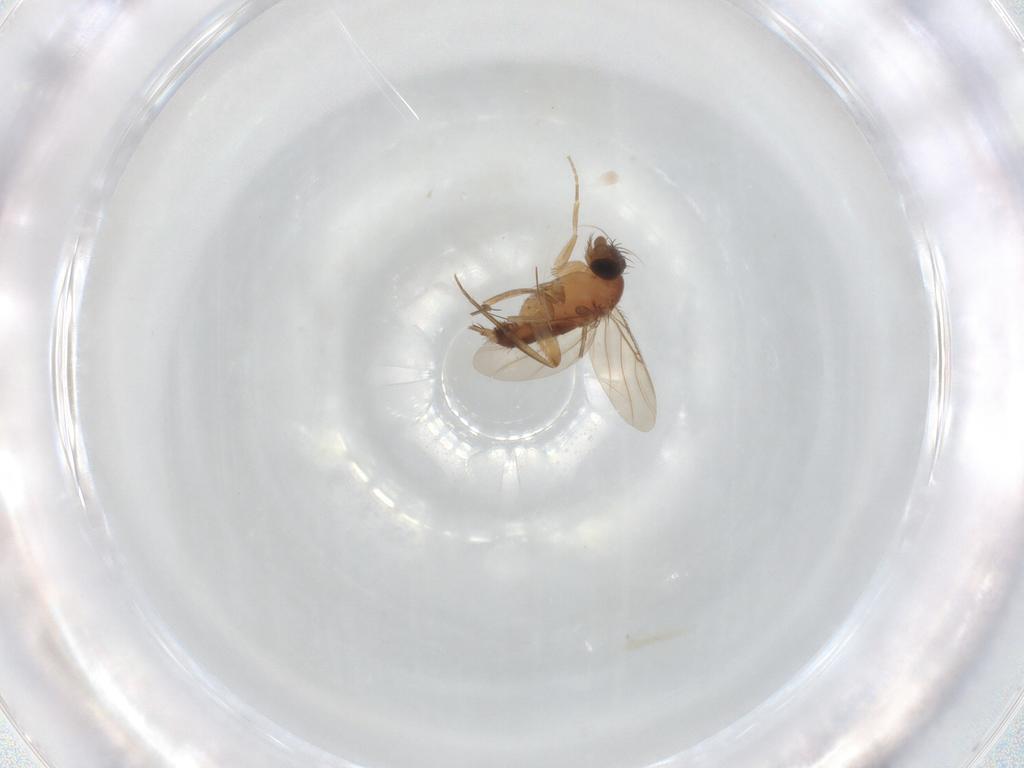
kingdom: Animalia
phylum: Arthropoda
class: Insecta
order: Diptera
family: Phoridae
